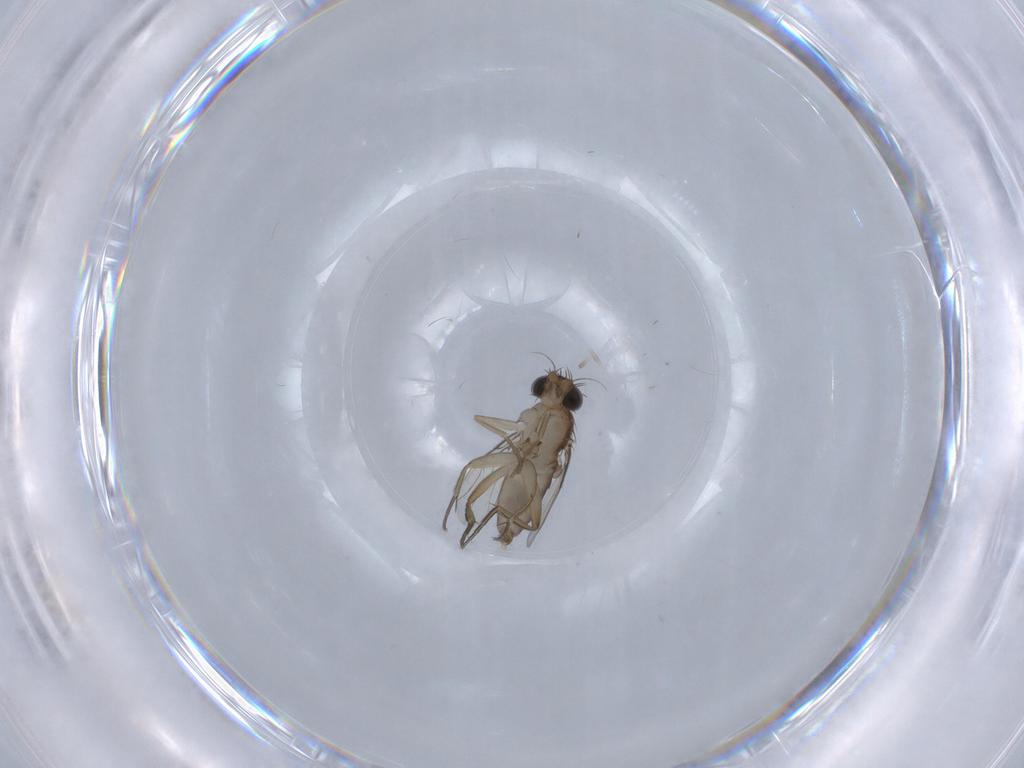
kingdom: Animalia
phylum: Arthropoda
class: Insecta
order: Diptera
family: Phoridae
